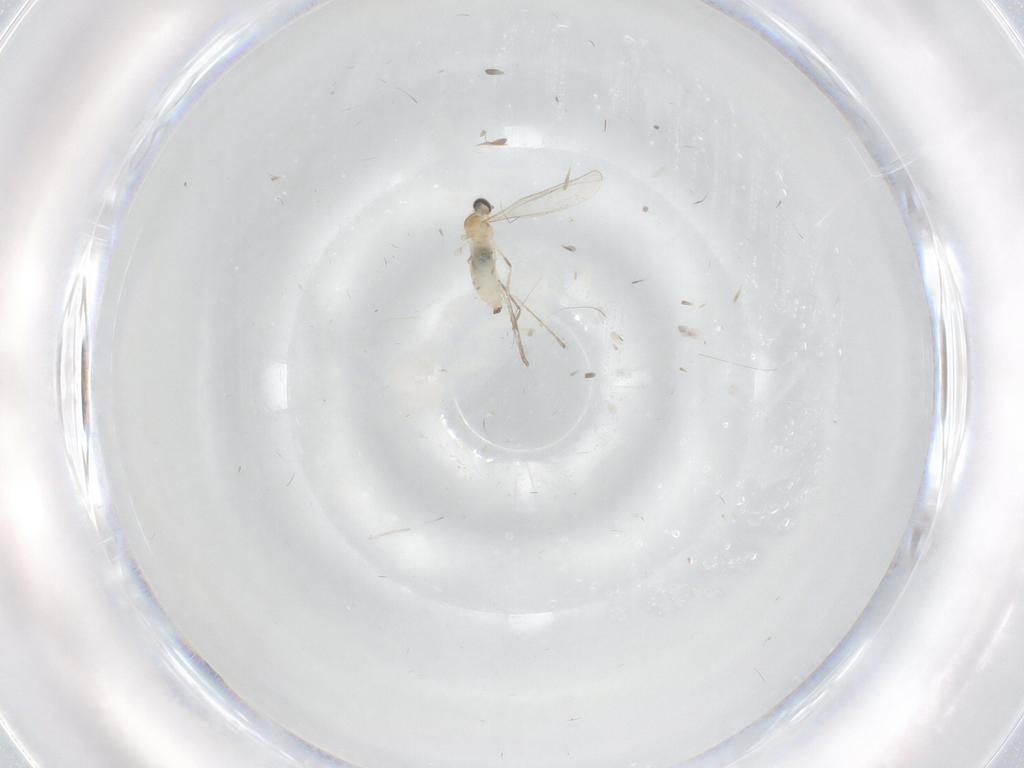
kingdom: Animalia
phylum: Arthropoda
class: Insecta
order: Diptera
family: Cecidomyiidae
